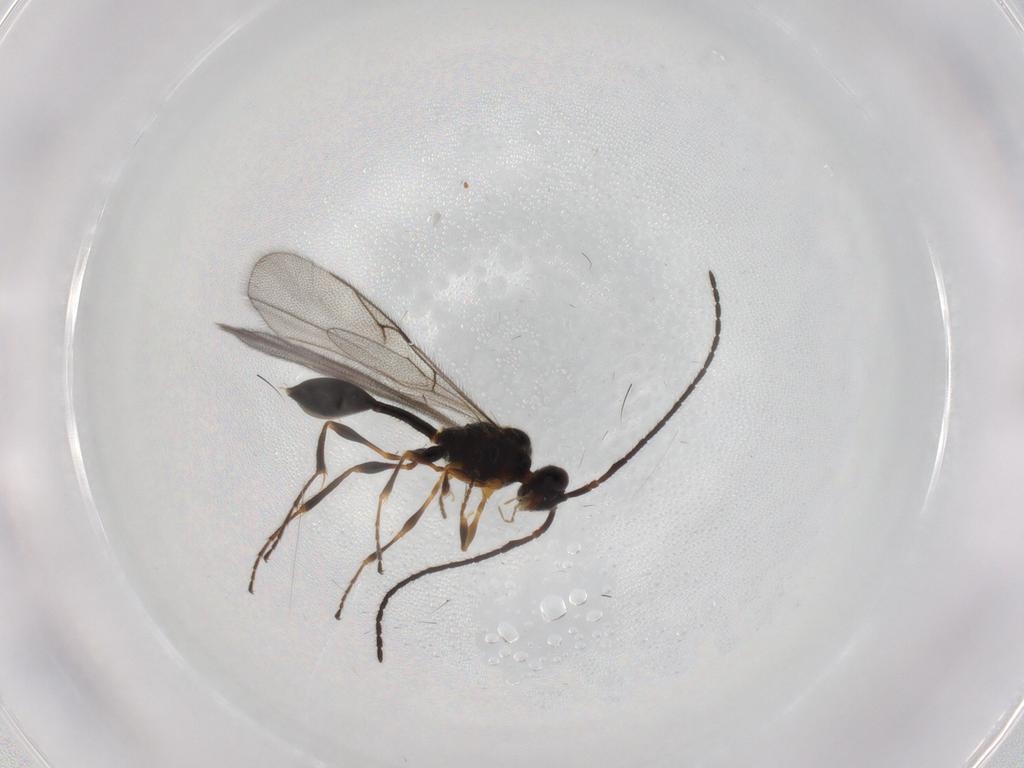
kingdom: Animalia
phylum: Arthropoda
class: Insecta
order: Hymenoptera
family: Diapriidae
